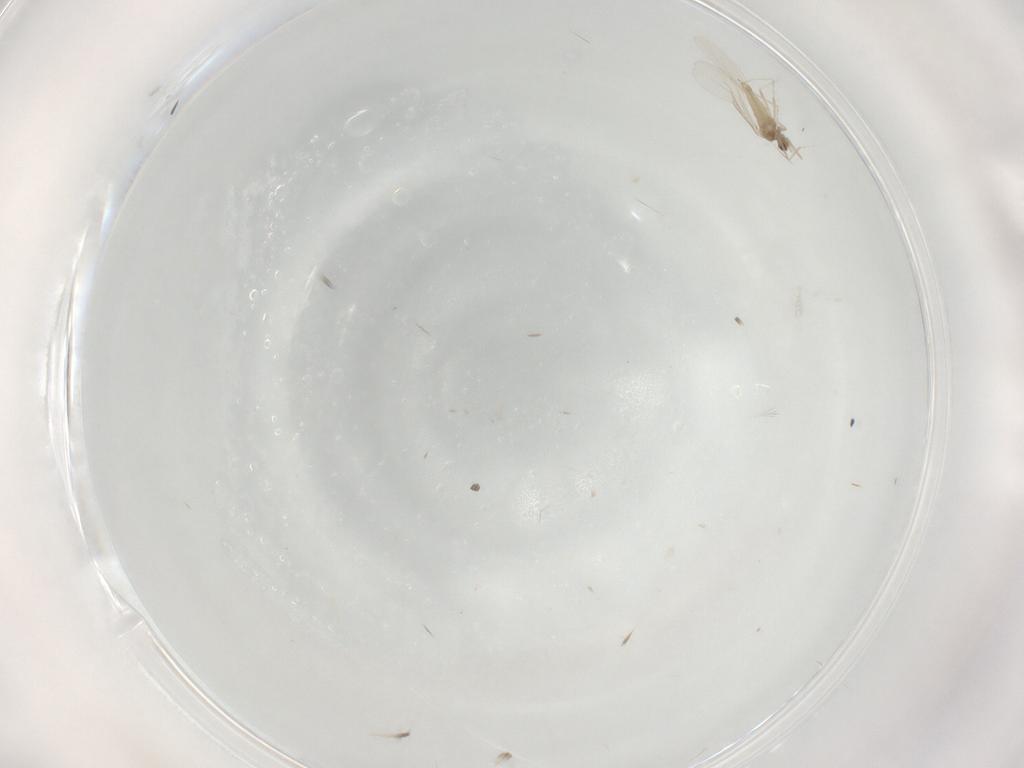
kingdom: Animalia
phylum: Arthropoda
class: Insecta
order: Diptera
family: Cecidomyiidae
